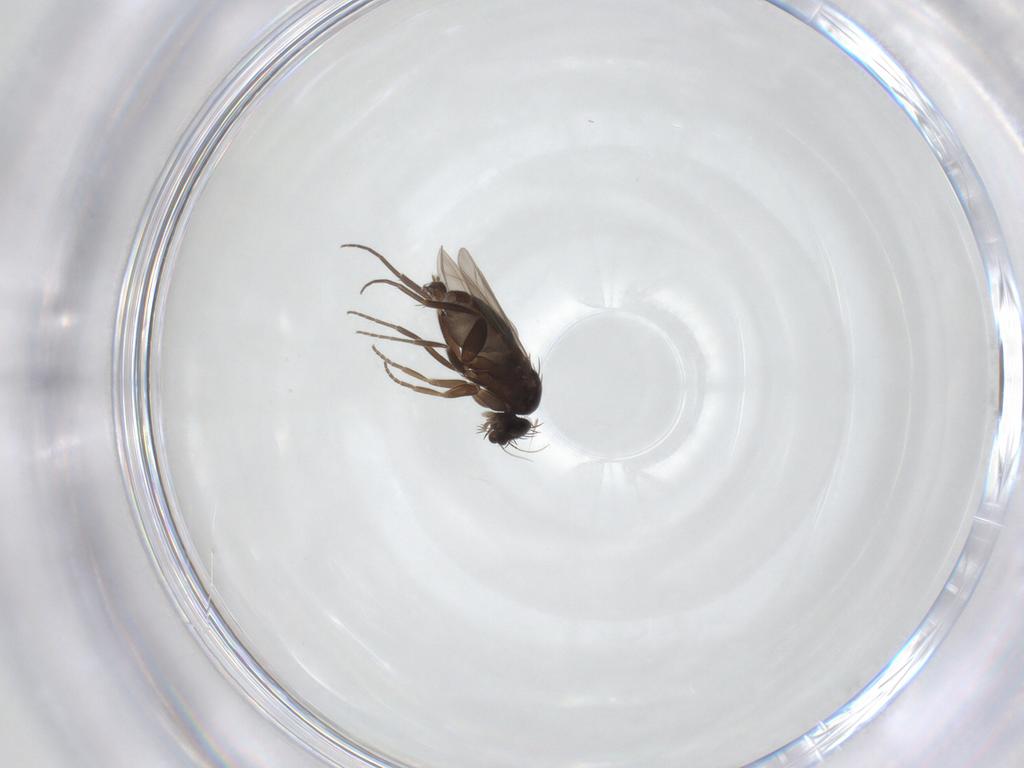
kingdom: Animalia
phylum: Arthropoda
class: Insecta
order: Diptera
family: Phoridae
